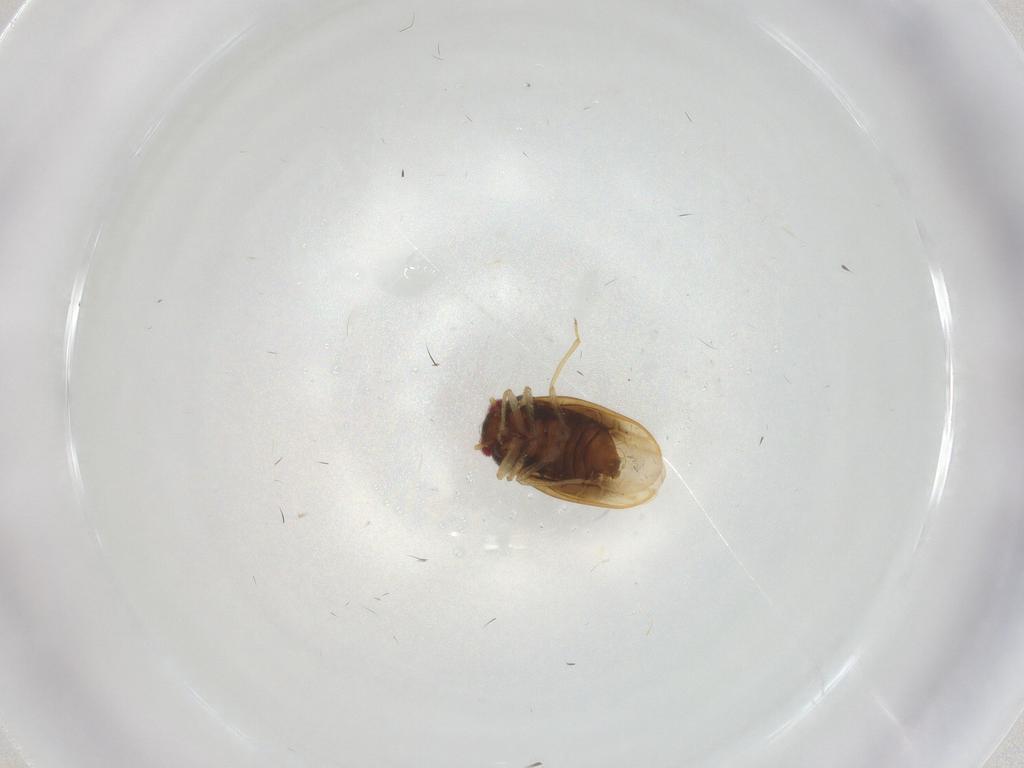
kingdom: Animalia
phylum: Arthropoda
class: Insecta
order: Hemiptera
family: Schizopteridae
